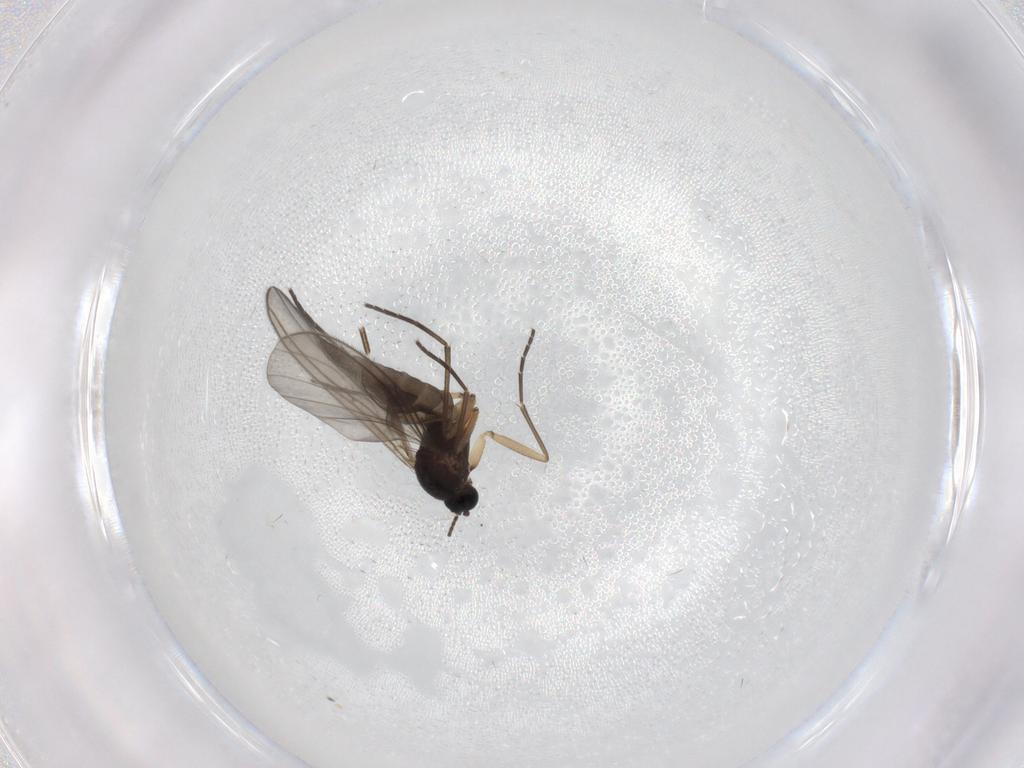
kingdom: Animalia
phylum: Arthropoda
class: Insecta
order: Diptera
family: Sciaridae
